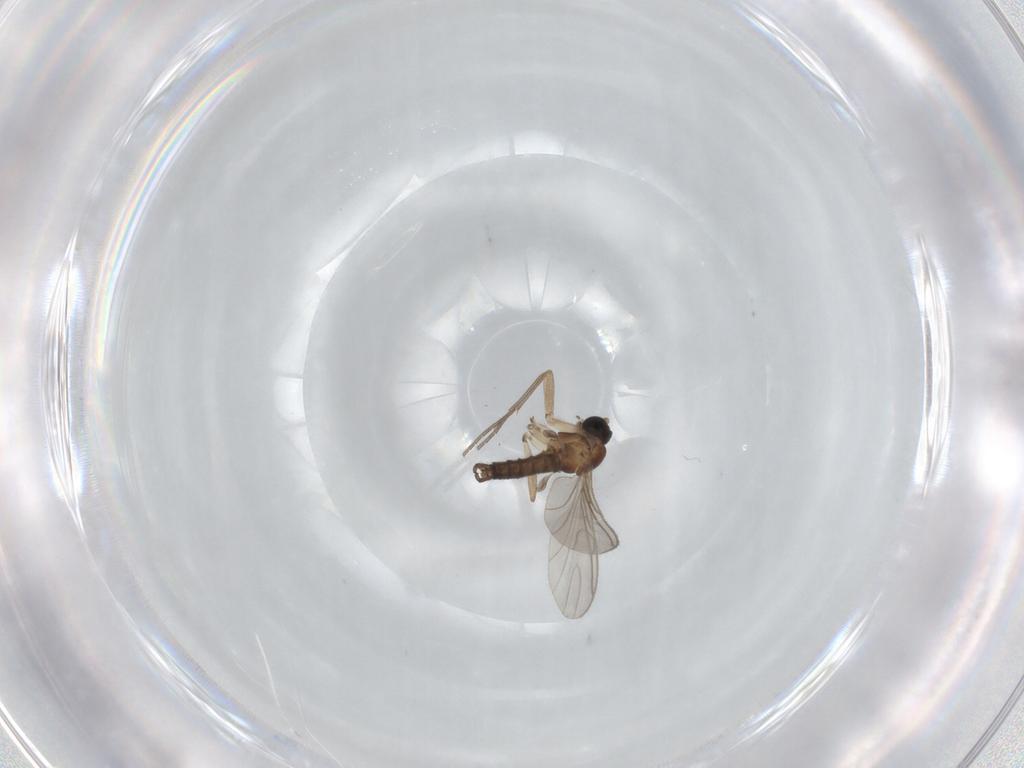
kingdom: Animalia
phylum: Arthropoda
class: Insecta
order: Diptera
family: Sciaridae
